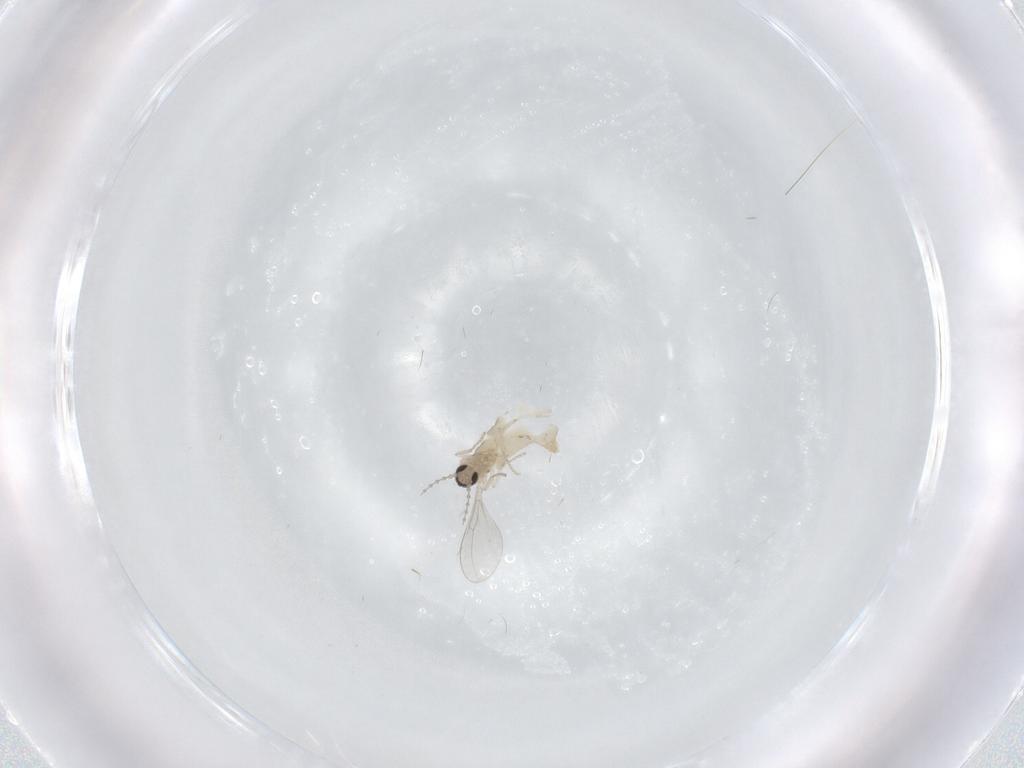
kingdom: Animalia
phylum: Arthropoda
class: Insecta
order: Diptera
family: Cecidomyiidae
